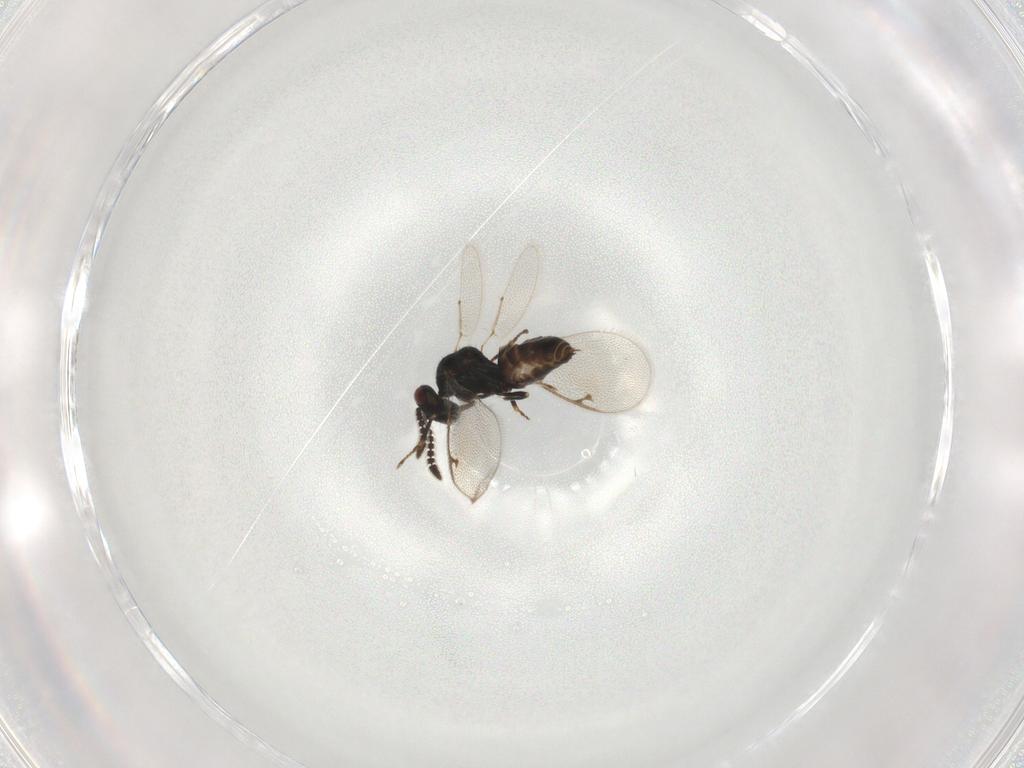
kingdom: Animalia
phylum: Arthropoda
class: Insecta
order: Hymenoptera
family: Pteromalidae
